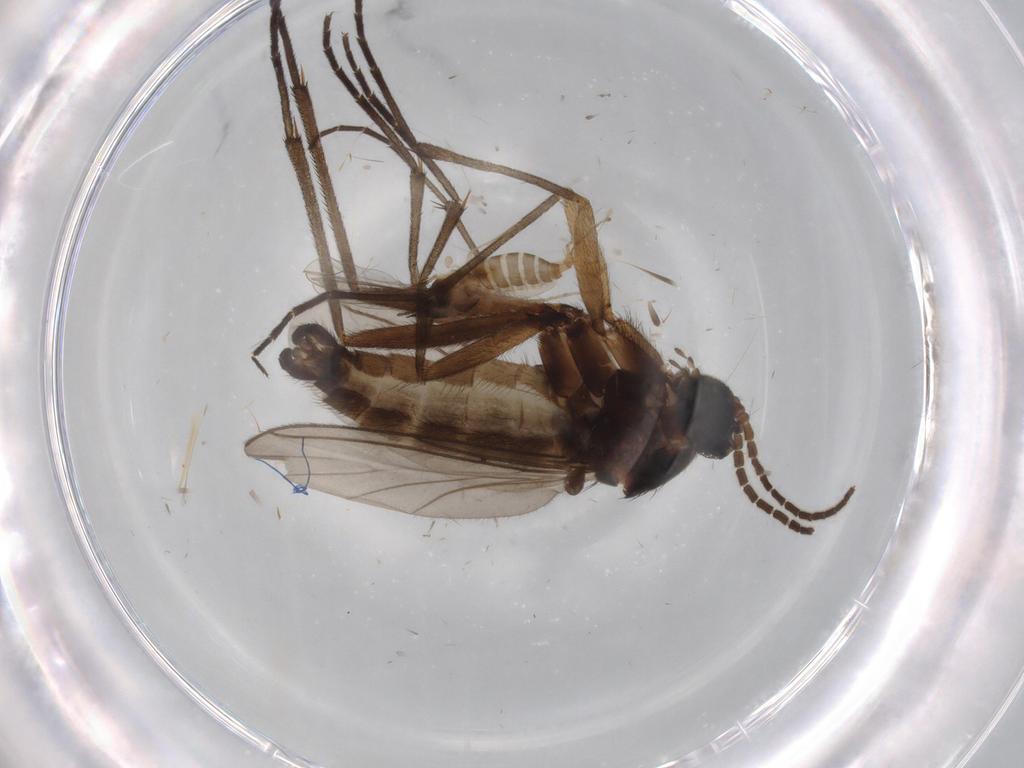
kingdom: Animalia
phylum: Arthropoda
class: Insecta
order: Diptera
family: Sciaridae
